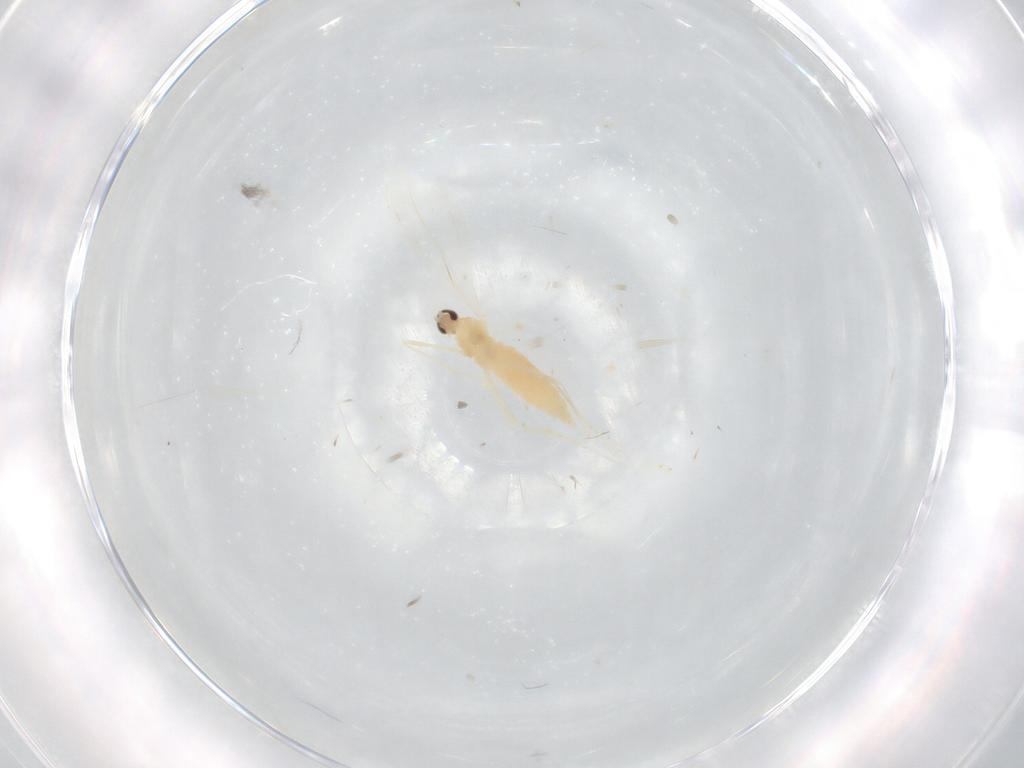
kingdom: Animalia
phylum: Arthropoda
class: Insecta
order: Diptera
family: Cecidomyiidae
